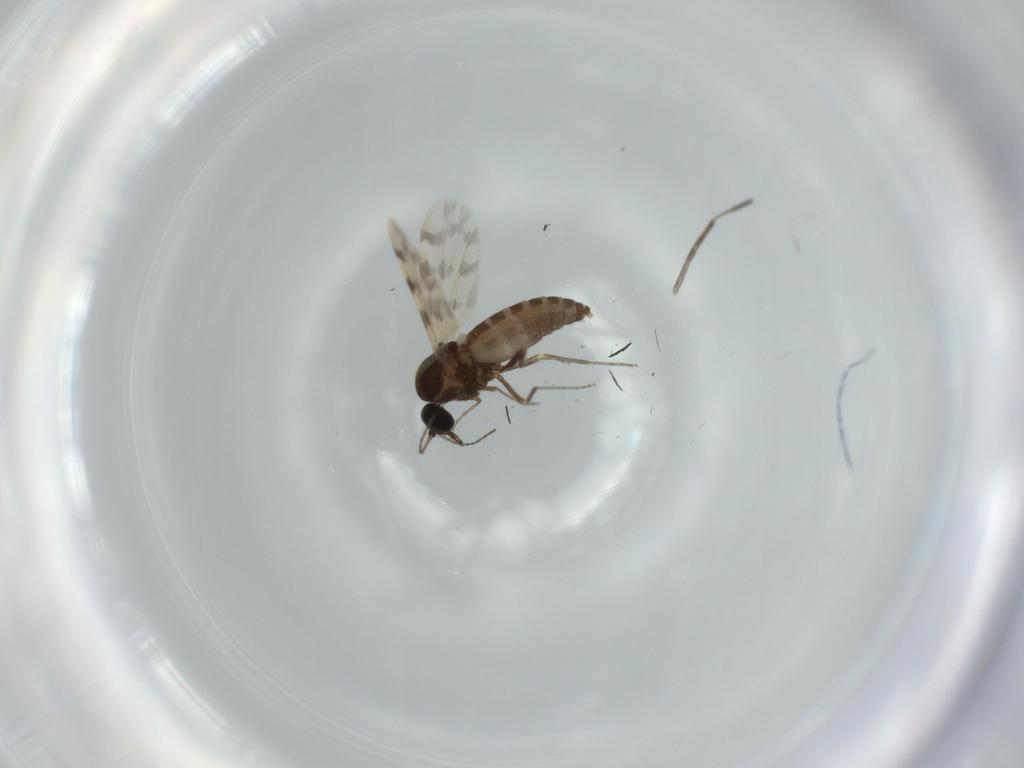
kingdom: Animalia
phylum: Arthropoda
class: Insecta
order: Diptera
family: Ceratopogonidae
